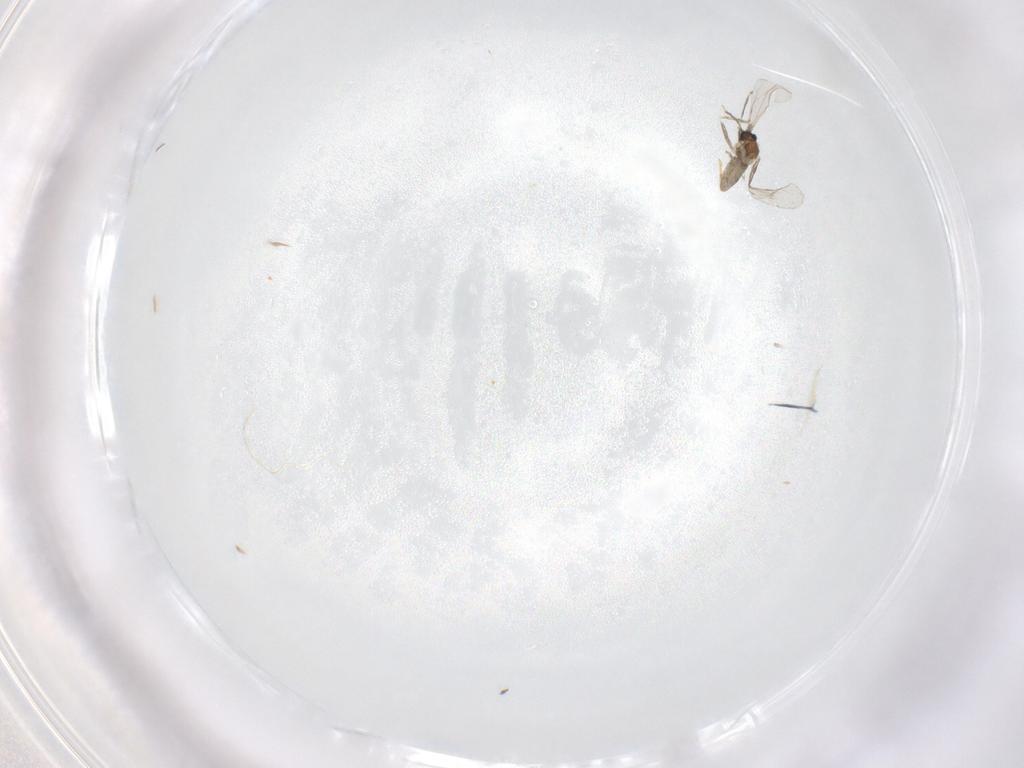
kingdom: Animalia
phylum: Arthropoda
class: Insecta
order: Diptera
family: Cecidomyiidae
